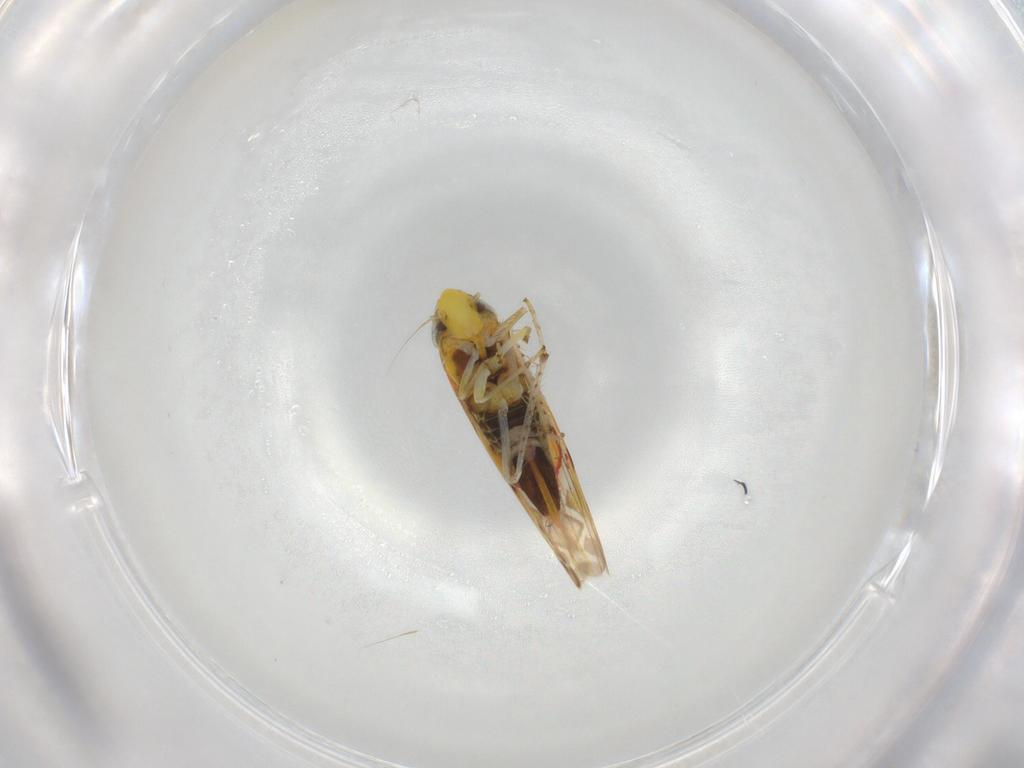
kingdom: Animalia
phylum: Arthropoda
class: Insecta
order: Hemiptera
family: Cicadellidae
